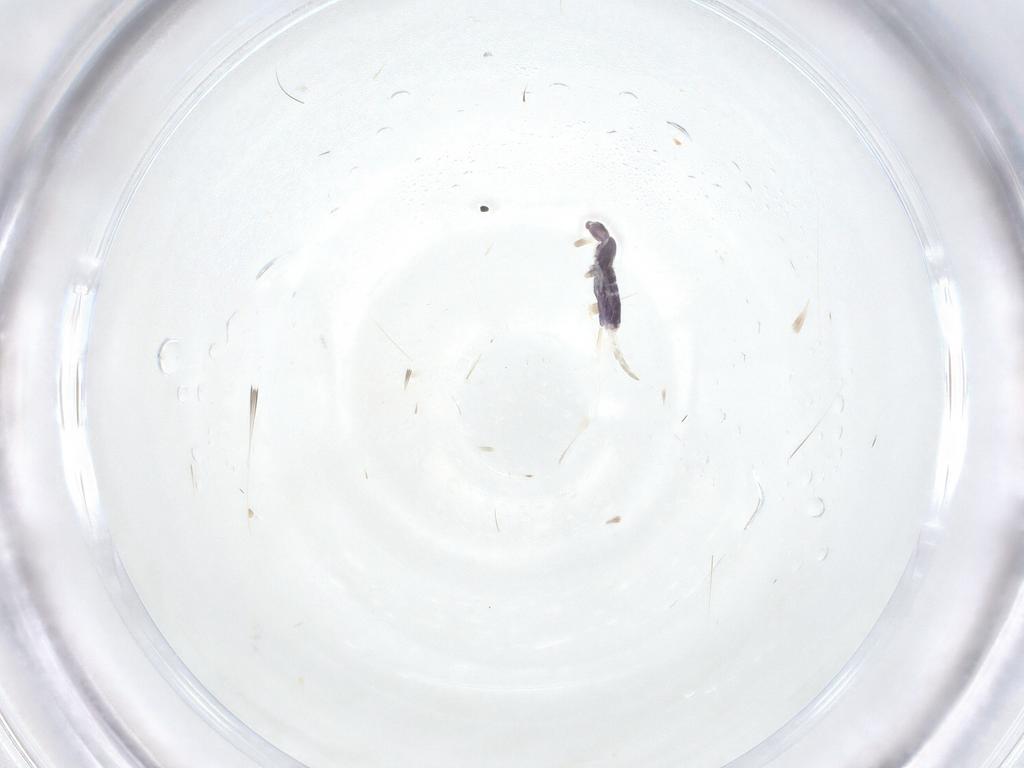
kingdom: Animalia
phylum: Arthropoda
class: Collembola
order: Entomobryomorpha
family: Entomobryidae
